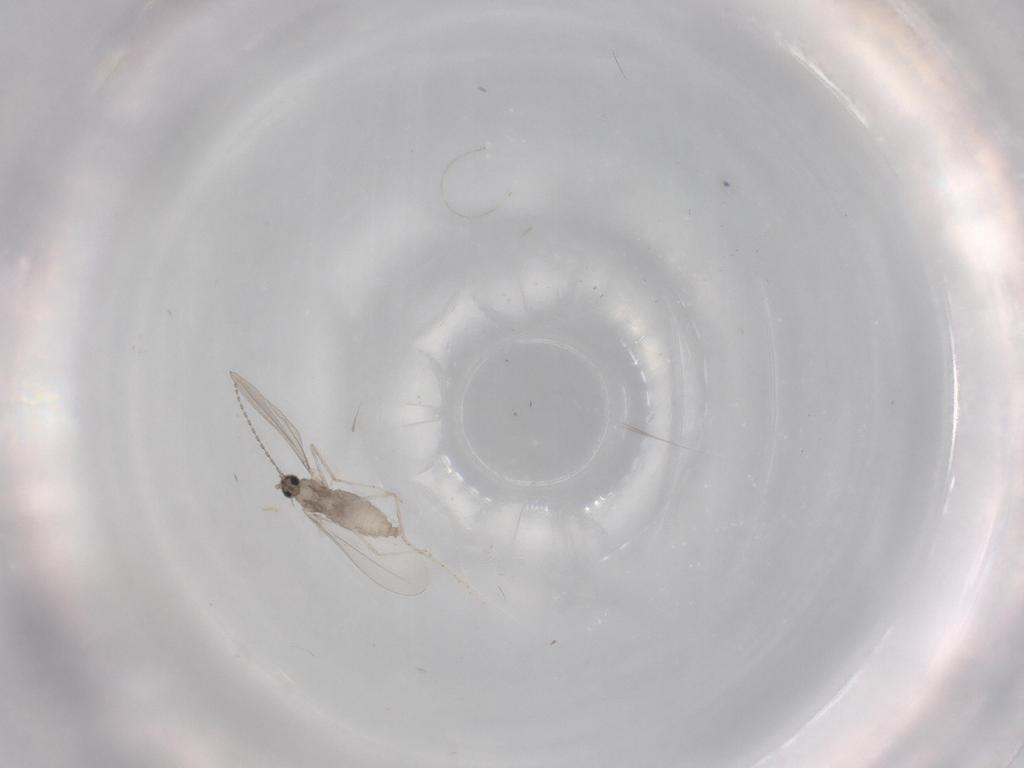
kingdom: Animalia
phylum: Arthropoda
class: Insecta
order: Diptera
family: Cecidomyiidae
